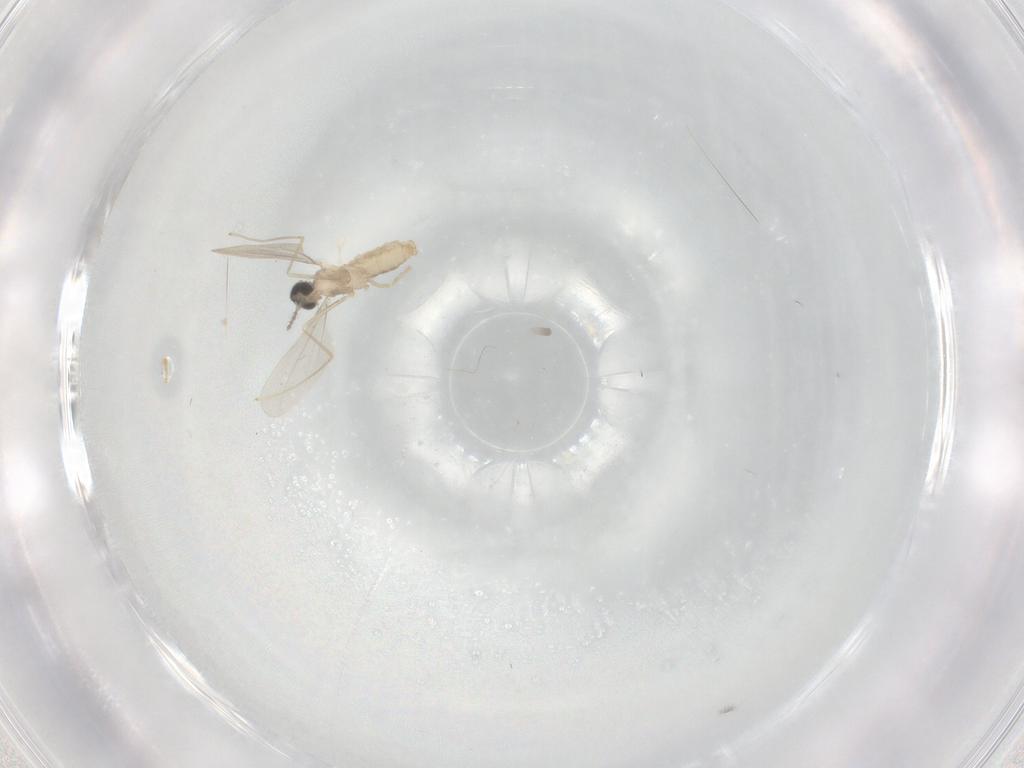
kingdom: Animalia
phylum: Arthropoda
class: Insecta
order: Diptera
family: Cecidomyiidae
